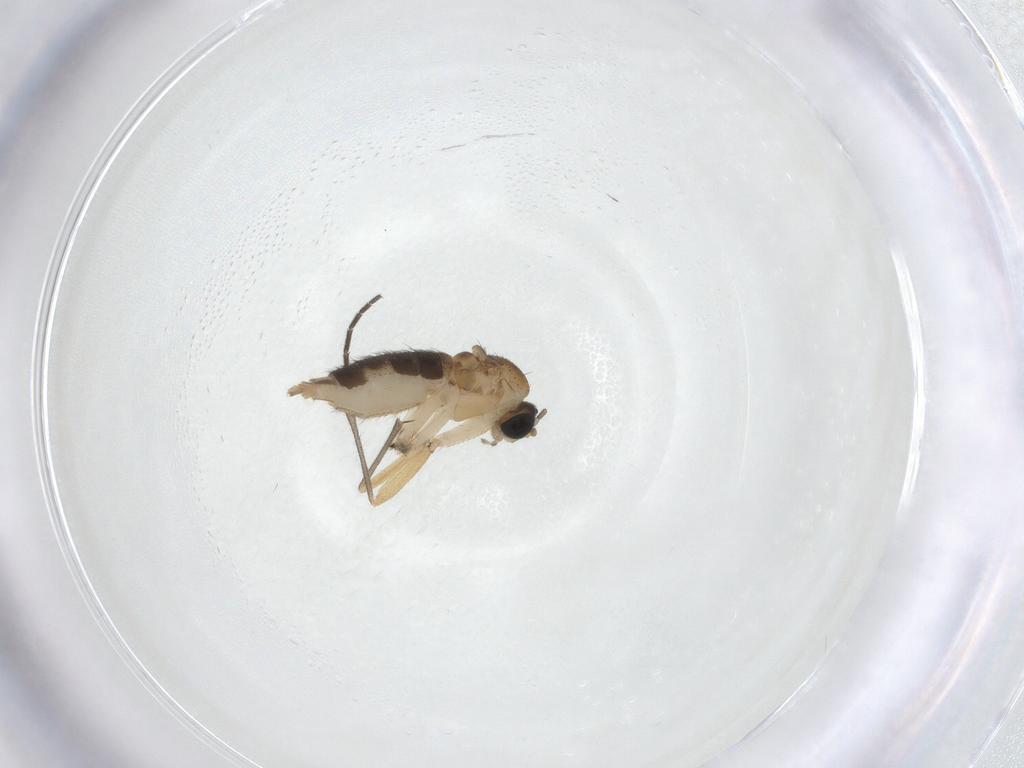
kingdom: Animalia
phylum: Arthropoda
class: Insecta
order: Diptera
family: Sciaridae
